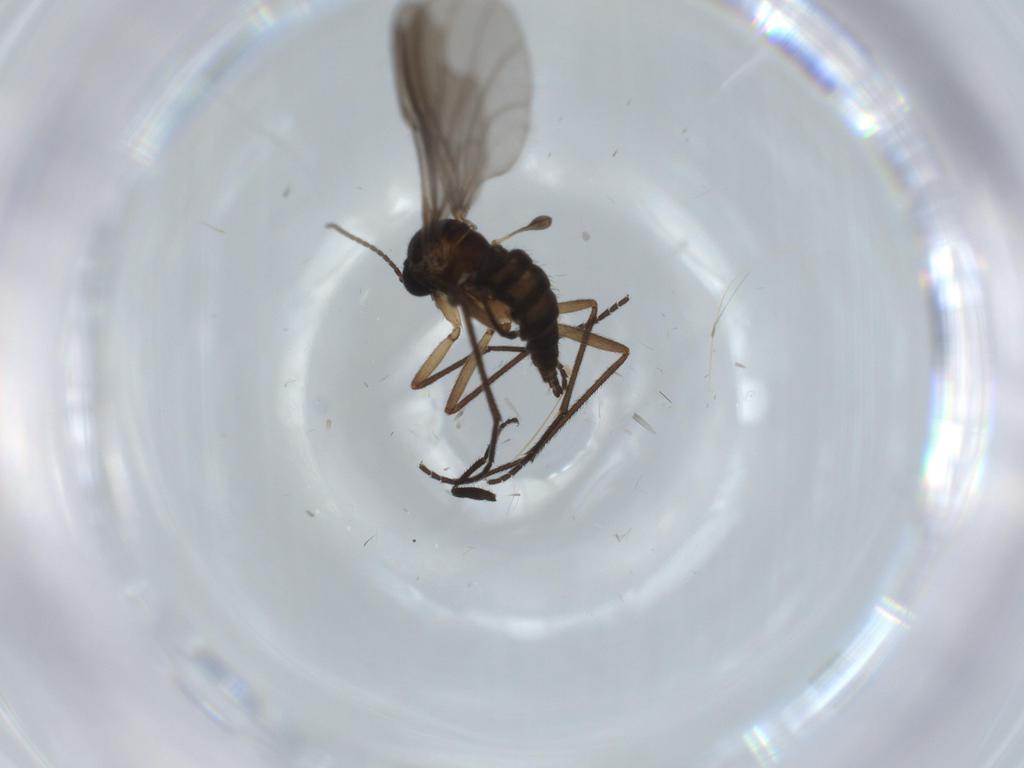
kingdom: Animalia
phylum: Arthropoda
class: Insecta
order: Diptera
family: Sciaridae
